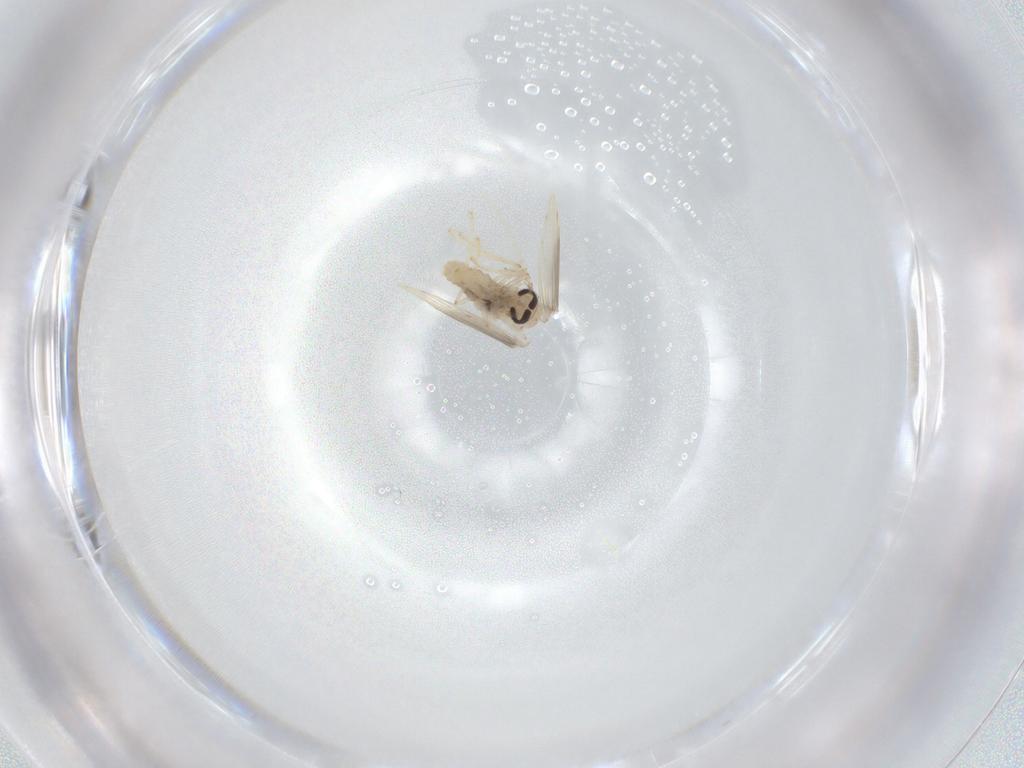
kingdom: Animalia
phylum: Arthropoda
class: Insecta
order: Diptera
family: Psychodidae
